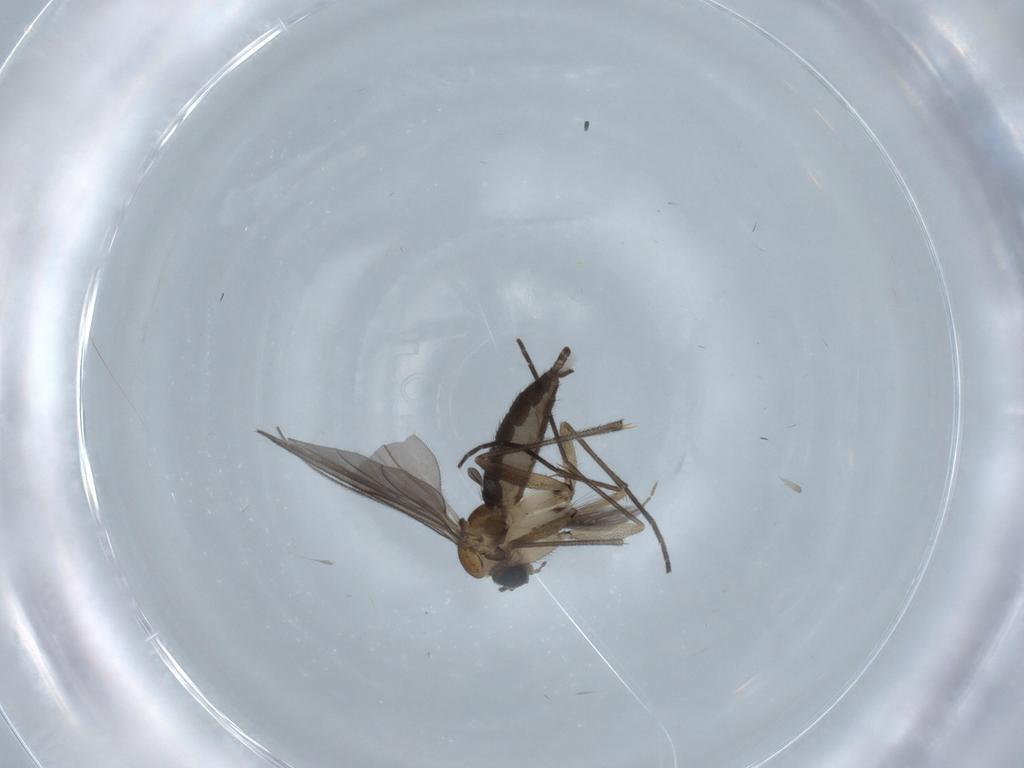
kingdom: Animalia
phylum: Arthropoda
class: Insecta
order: Diptera
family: Sciaridae
